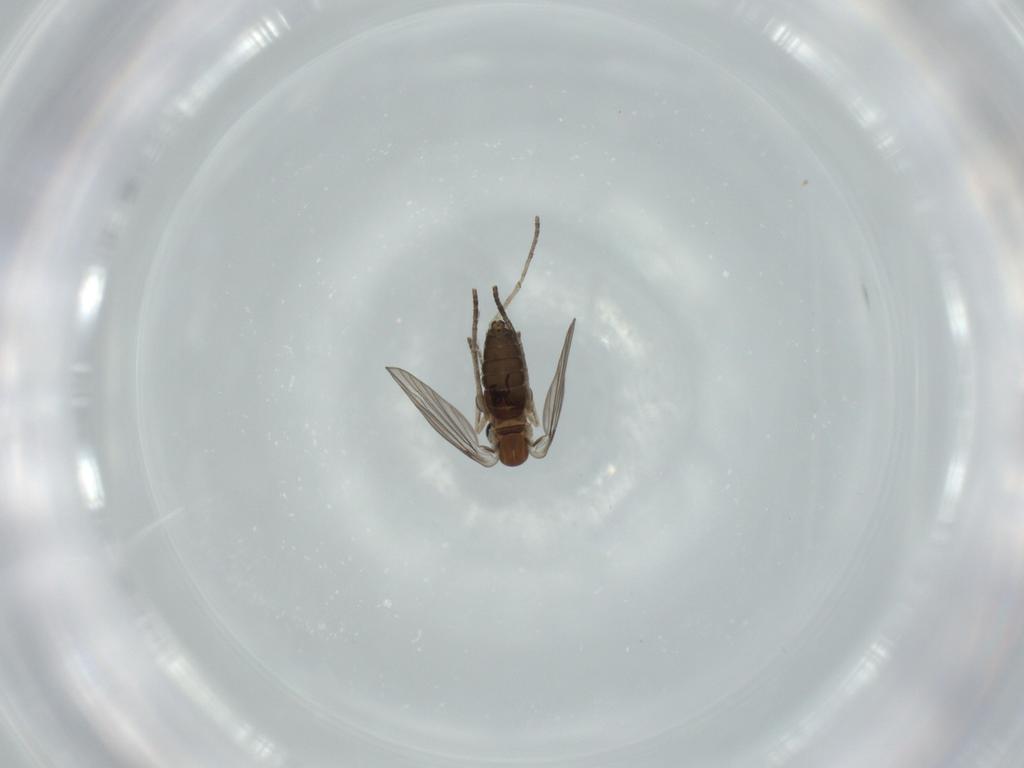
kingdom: Animalia
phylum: Arthropoda
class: Insecta
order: Diptera
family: Psychodidae
